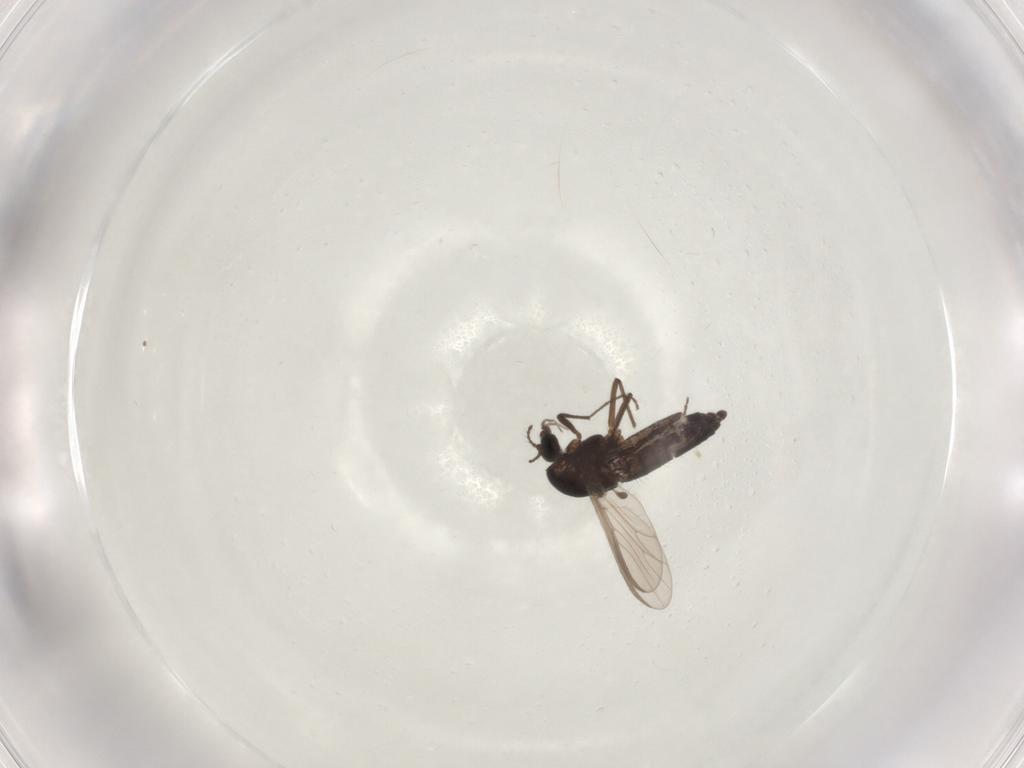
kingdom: Animalia
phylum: Arthropoda
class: Insecta
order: Diptera
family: Chironomidae
